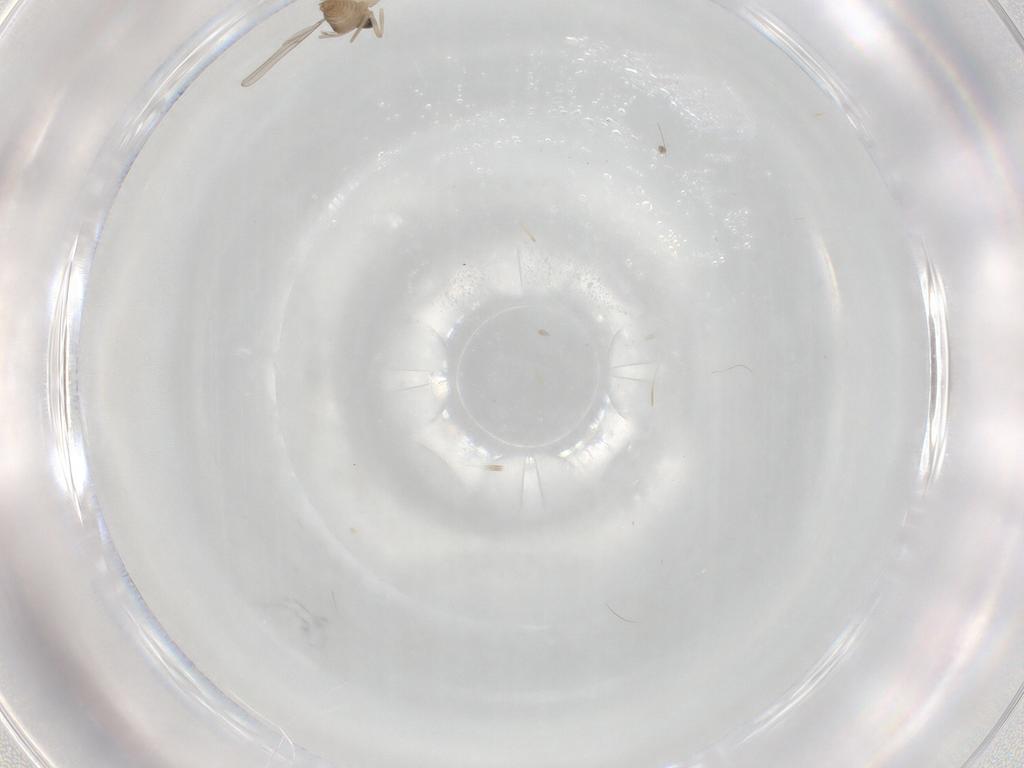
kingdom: Animalia
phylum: Arthropoda
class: Insecta
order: Diptera
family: Cecidomyiidae
